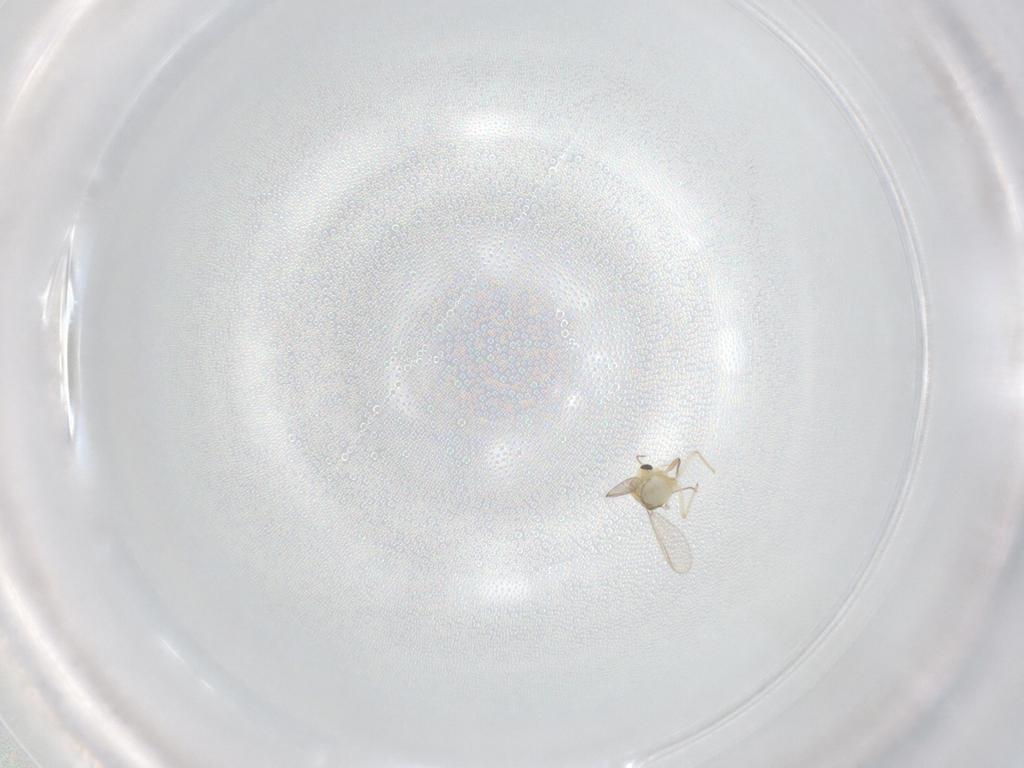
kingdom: Animalia
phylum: Arthropoda
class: Insecta
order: Diptera
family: Chironomidae
